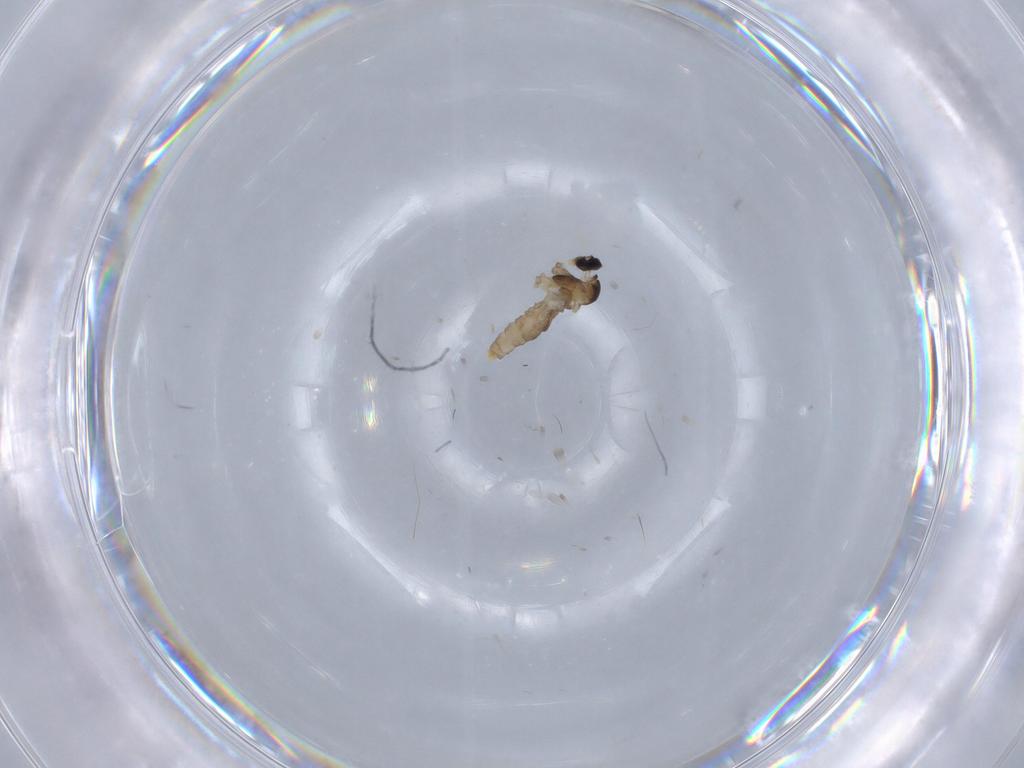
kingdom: Animalia
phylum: Arthropoda
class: Insecta
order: Diptera
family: Cecidomyiidae
